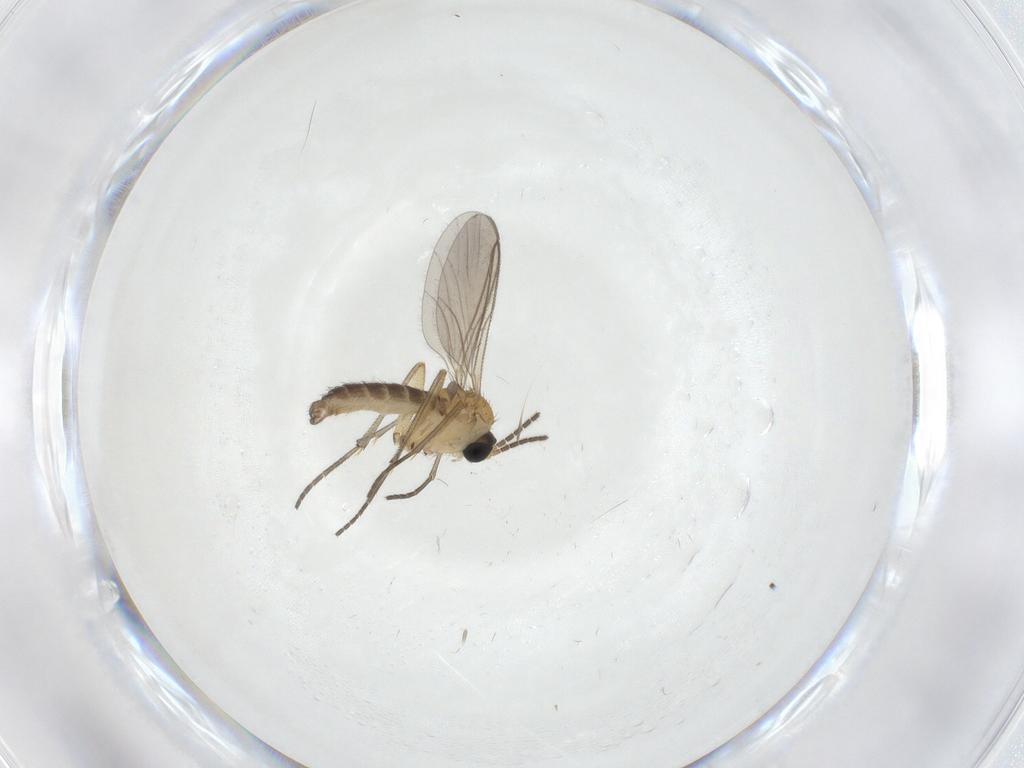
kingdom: Animalia
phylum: Arthropoda
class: Insecta
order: Diptera
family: Sciaridae
